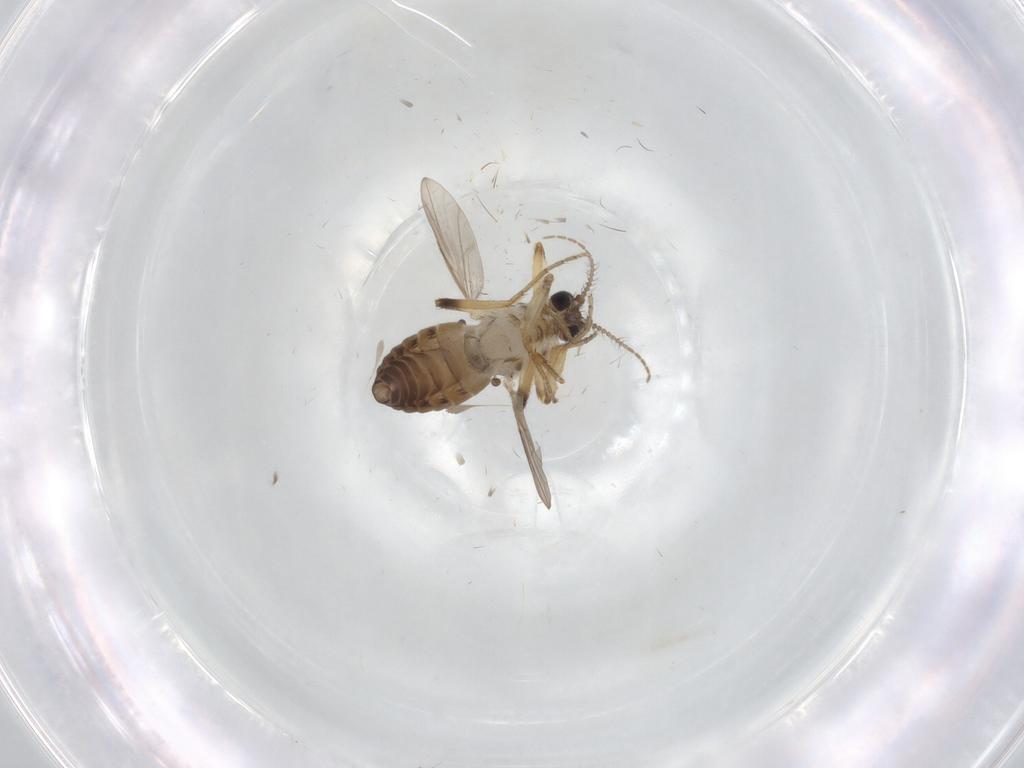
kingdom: Animalia
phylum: Arthropoda
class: Insecta
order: Diptera
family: Ceratopogonidae
